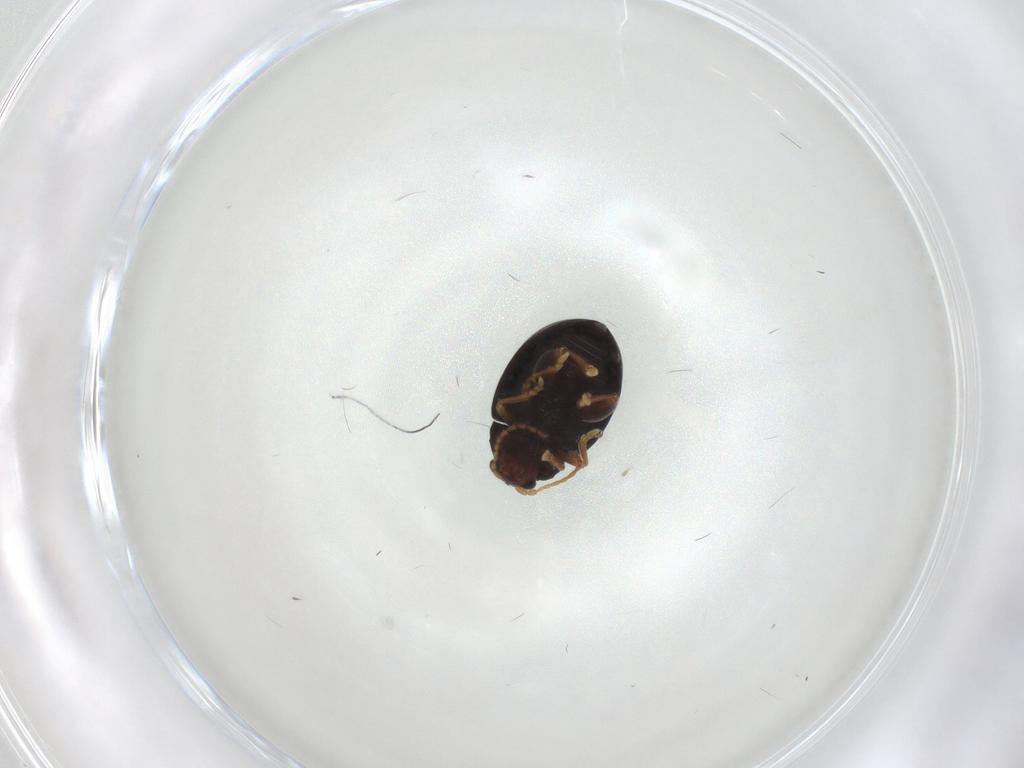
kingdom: Animalia
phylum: Arthropoda
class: Insecta
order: Coleoptera
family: Chrysomelidae
